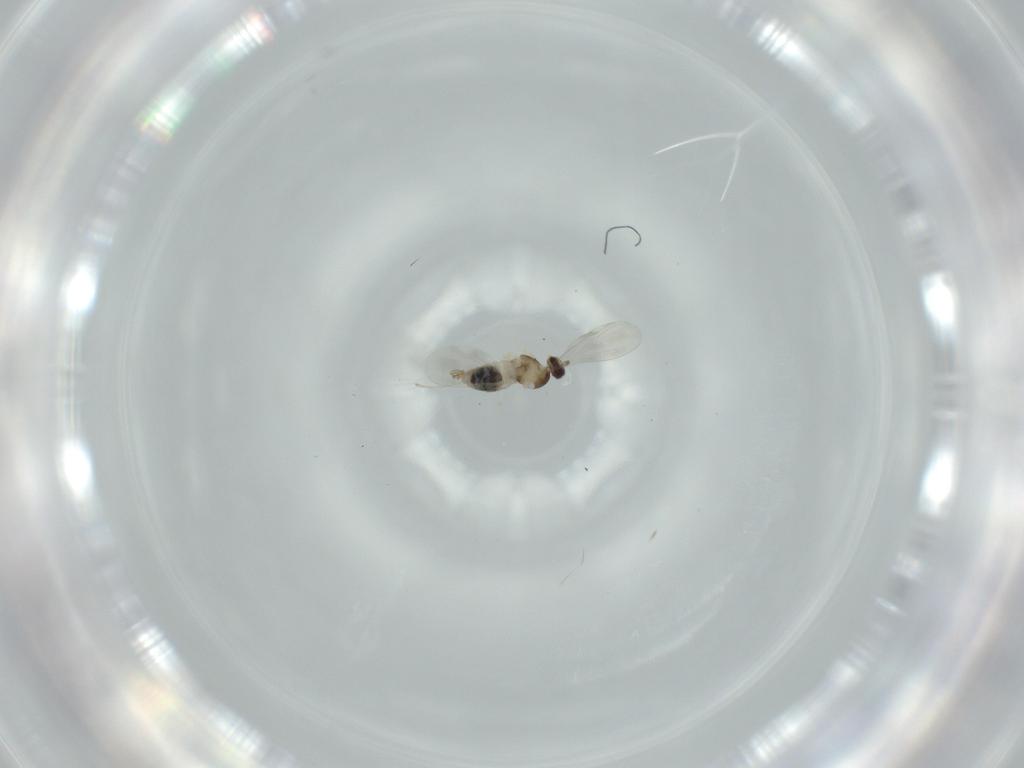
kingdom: Animalia
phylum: Arthropoda
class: Insecta
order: Diptera
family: Cecidomyiidae
